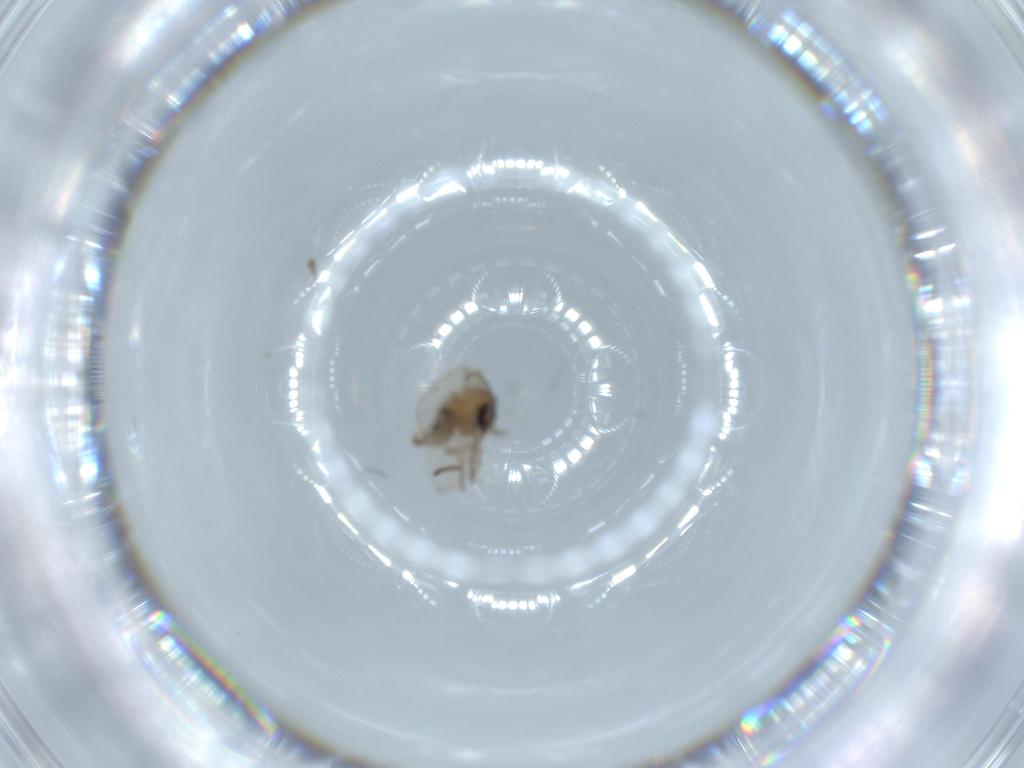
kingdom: Animalia
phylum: Arthropoda
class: Insecta
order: Diptera
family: Psychodidae
